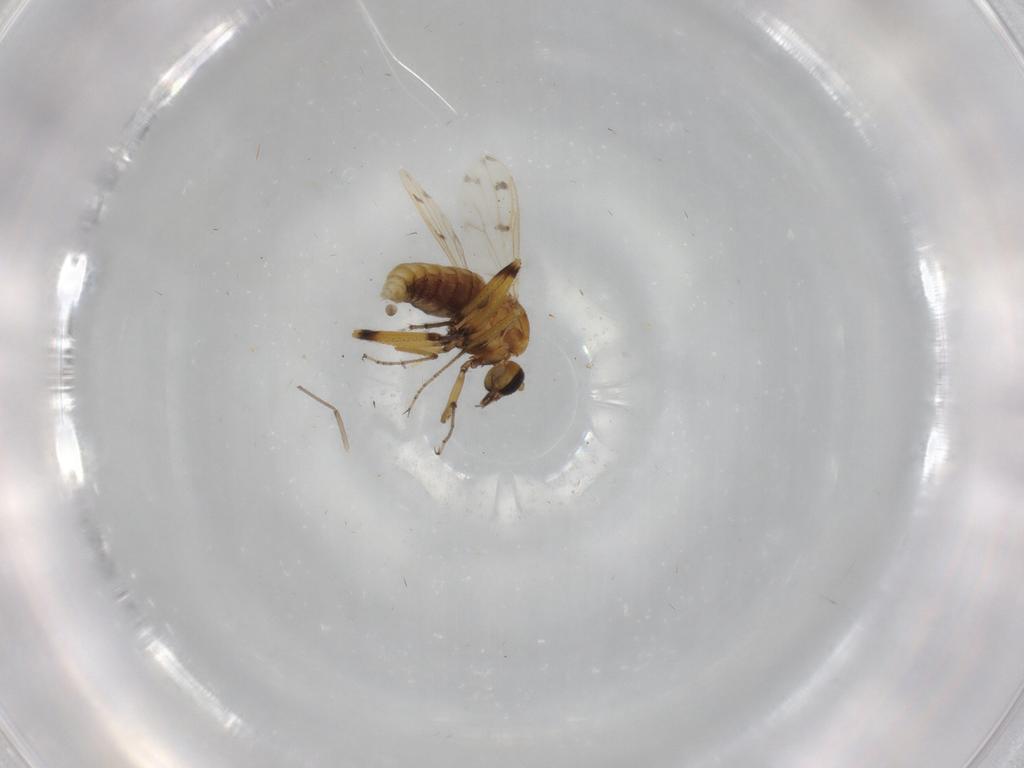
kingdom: Animalia
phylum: Arthropoda
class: Insecta
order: Diptera
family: Ceratopogonidae
